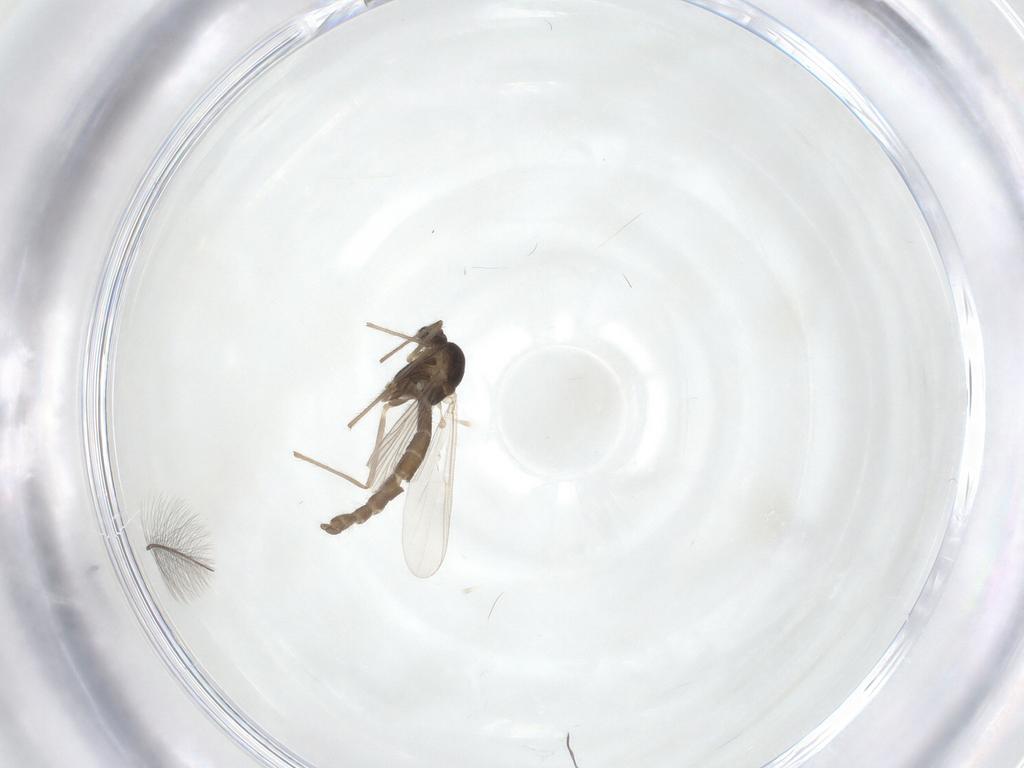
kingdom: Animalia
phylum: Arthropoda
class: Insecta
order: Diptera
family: Chironomidae
